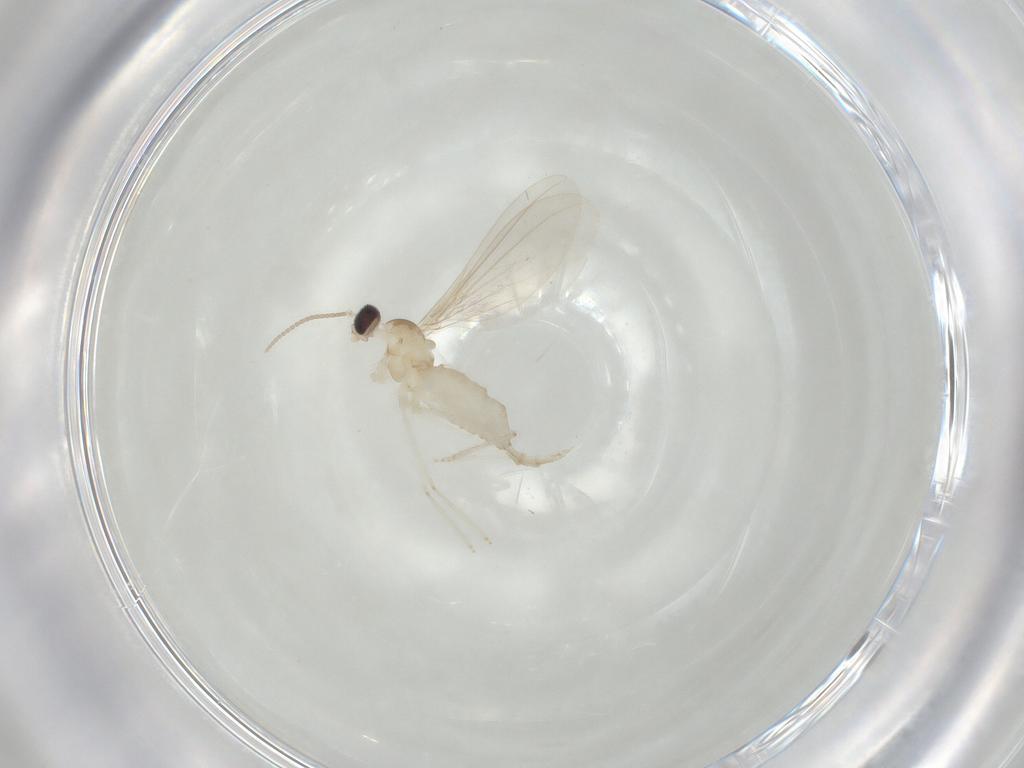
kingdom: Animalia
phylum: Arthropoda
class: Insecta
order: Diptera
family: Cecidomyiidae
